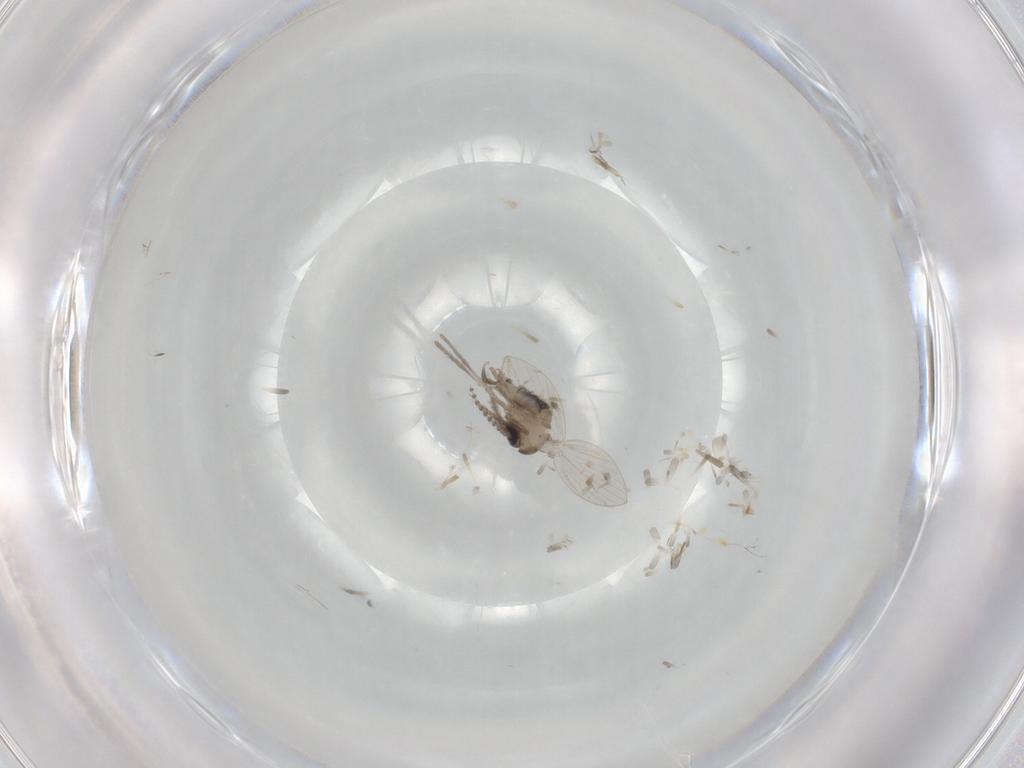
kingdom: Animalia
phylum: Arthropoda
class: Insecta
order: Diptera
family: Psychodidae
